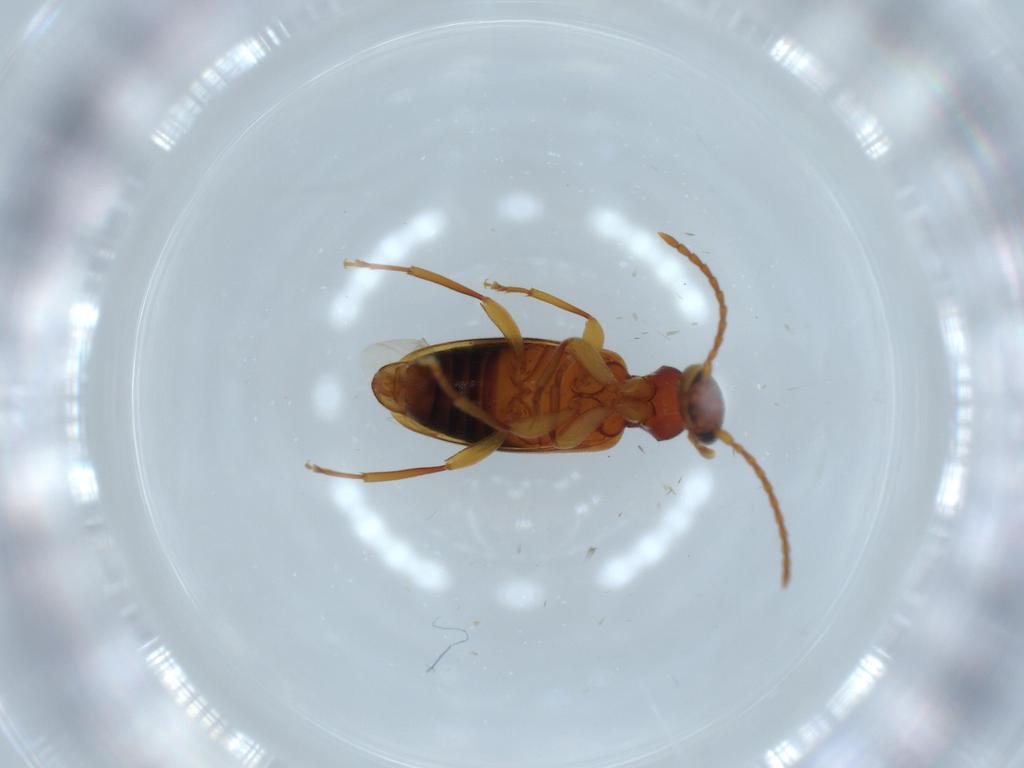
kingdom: Animalia
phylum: Arthropoda
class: Insecta
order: Coleoptera
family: Anthicidae
